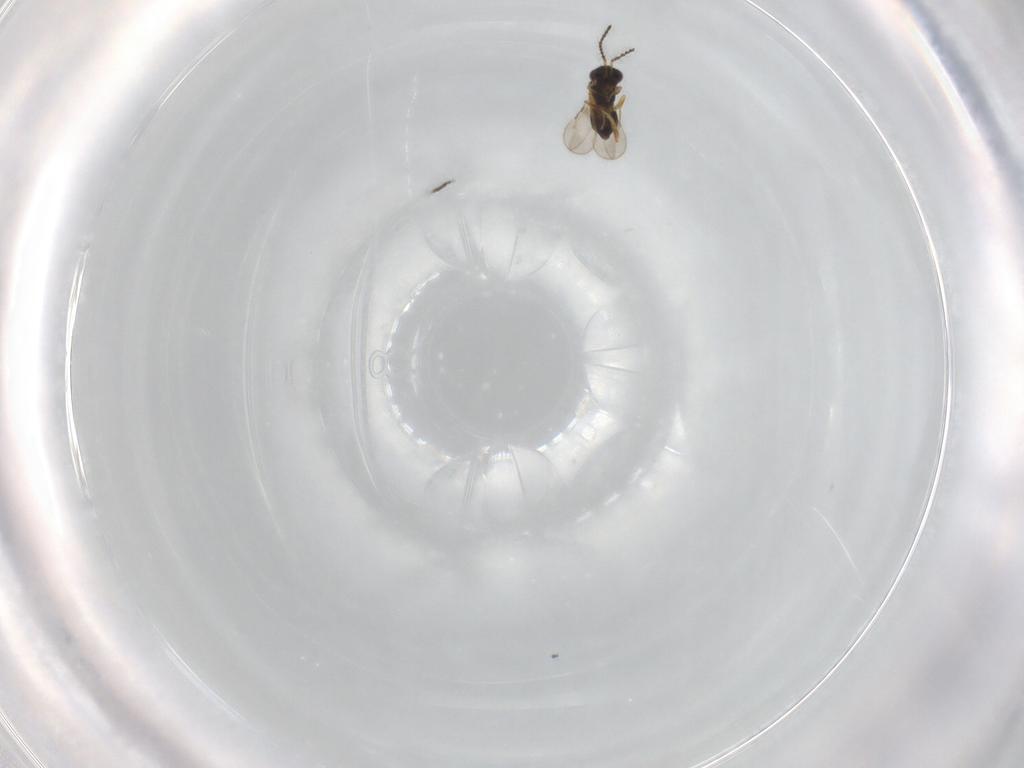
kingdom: Animalia
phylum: Arthropoda
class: Insecta
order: Hymenoptera
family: Ceraphronidae
